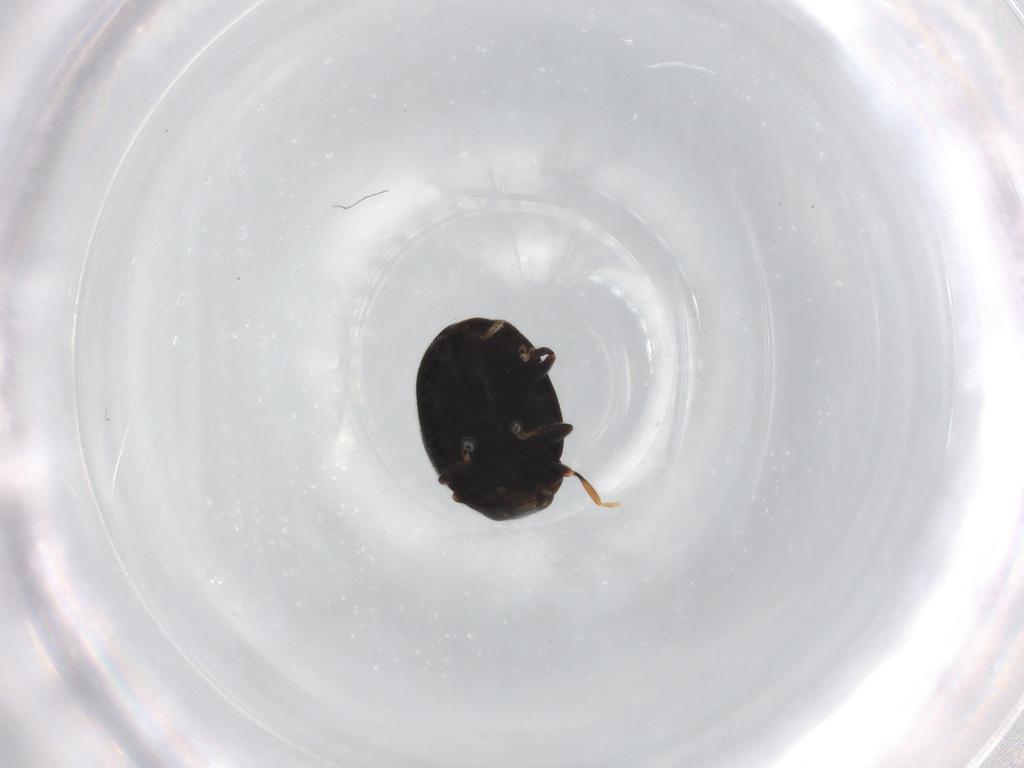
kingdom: Animalia
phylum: Arthropoda
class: Insecta
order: Coleoptera
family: Coccinellidae
